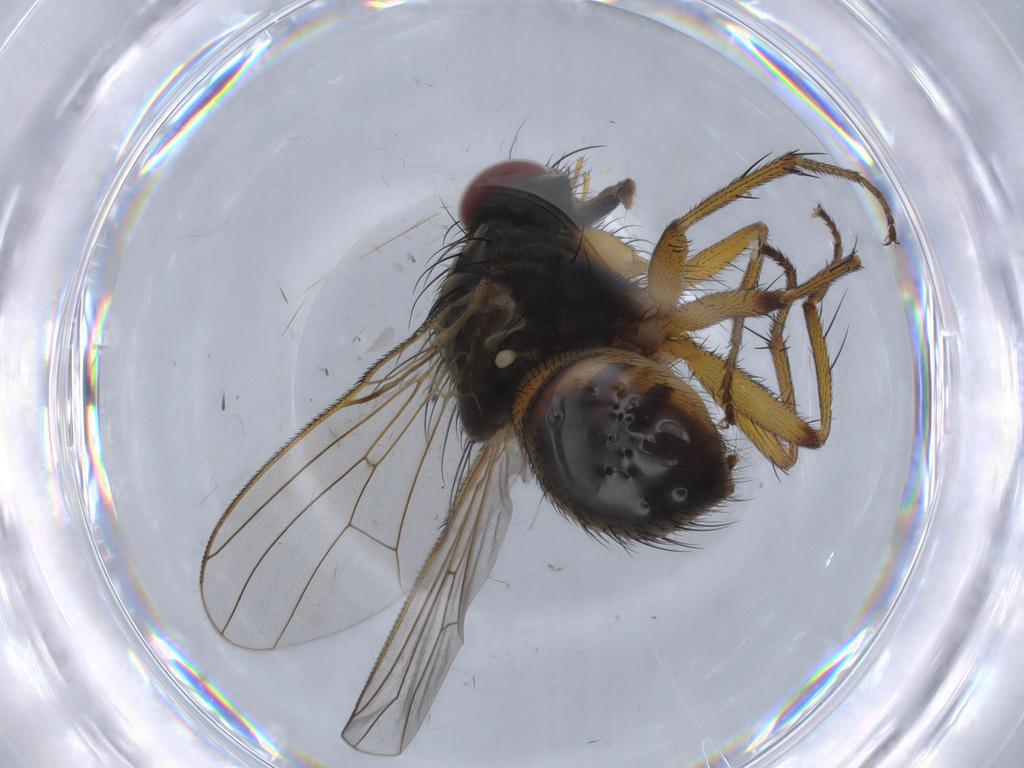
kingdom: Animalia
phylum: Arthropoda
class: Insecta
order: Diptera
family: Muscidae
